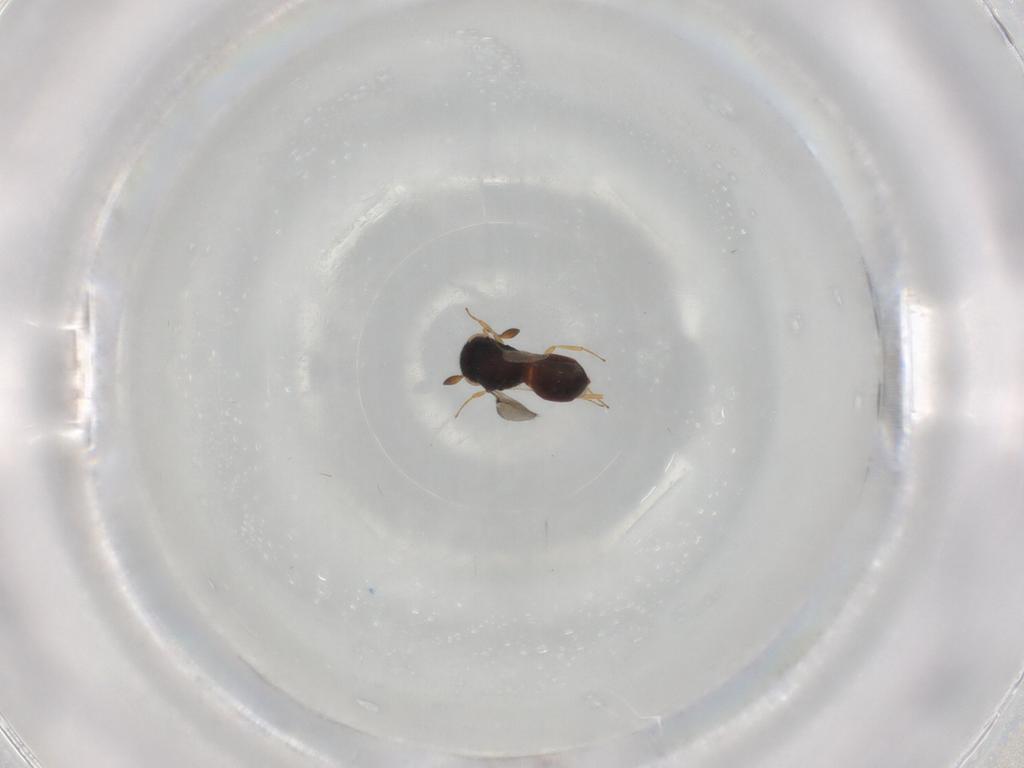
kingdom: Animalia
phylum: Arthropoda
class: Insecta
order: Hymenoptera
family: Scelionidae
